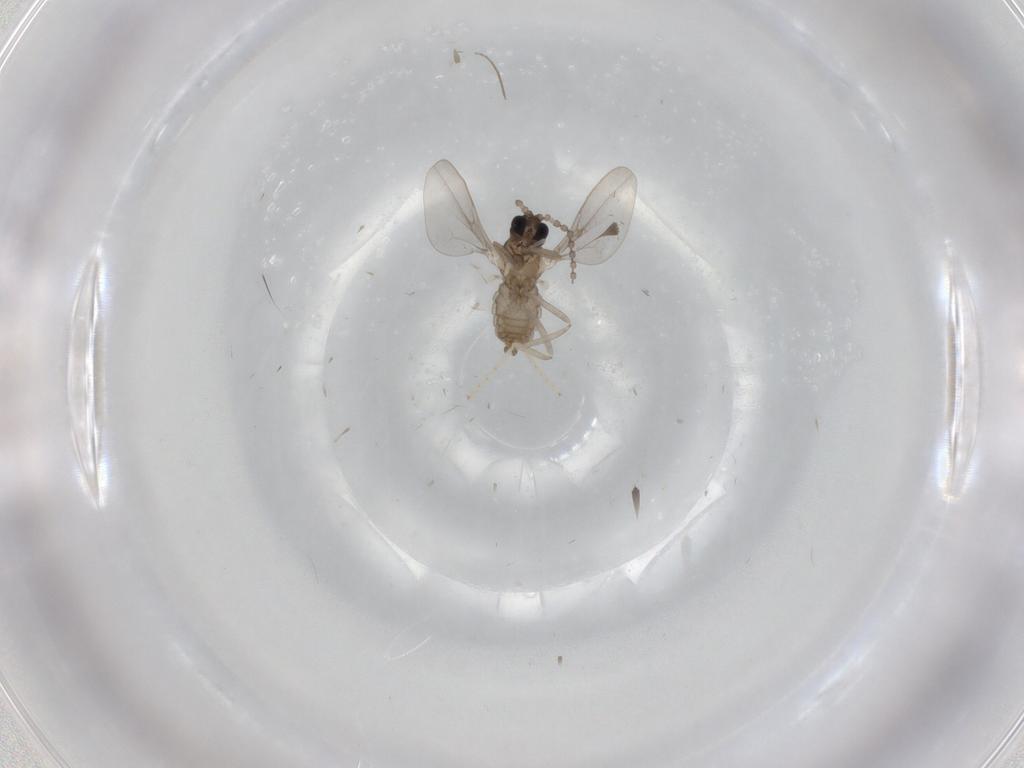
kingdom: Animalia
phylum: Arthropoda
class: Insecta
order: Diptera
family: Cecidomyiidae
